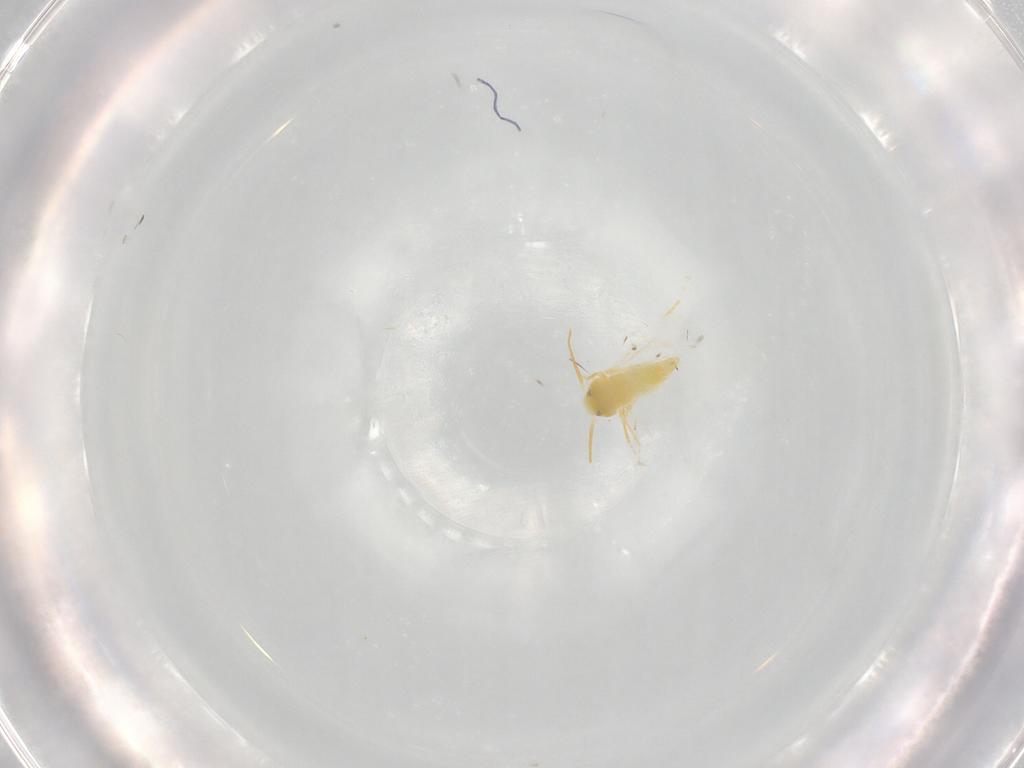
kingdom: Animalia
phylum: Arthropoda
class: Insecta
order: Hemiptera
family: Aleyrodidae
